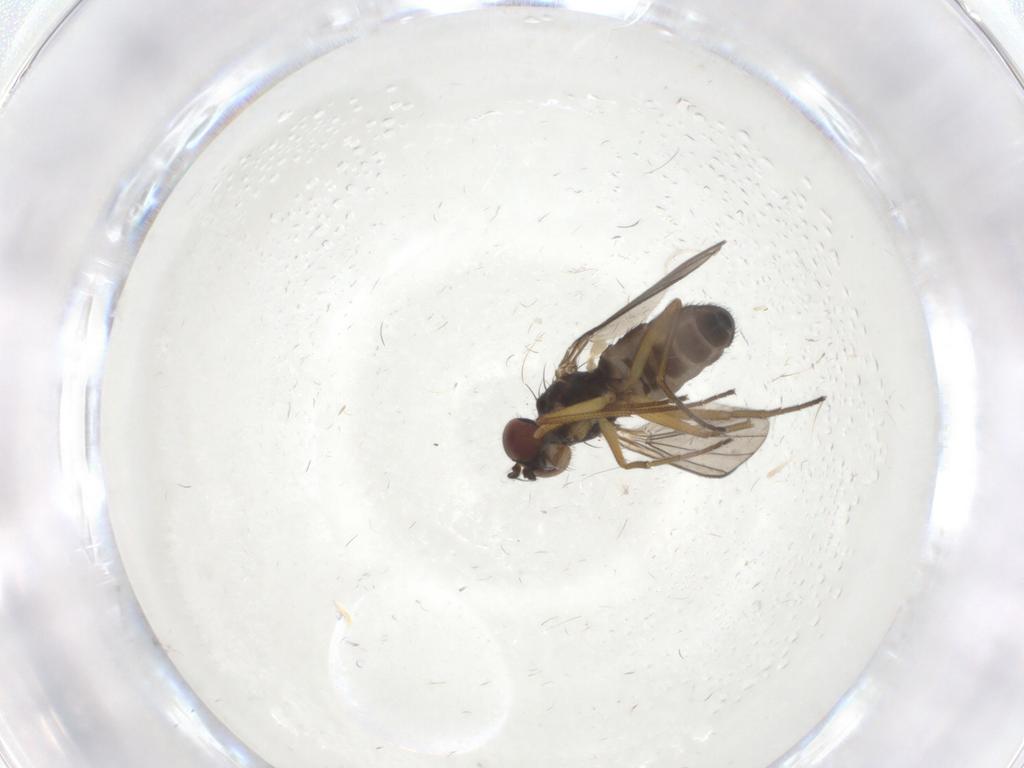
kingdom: Animalia
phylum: Arthropoda
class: Insecta
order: Diptera
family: Dolichopodidae
